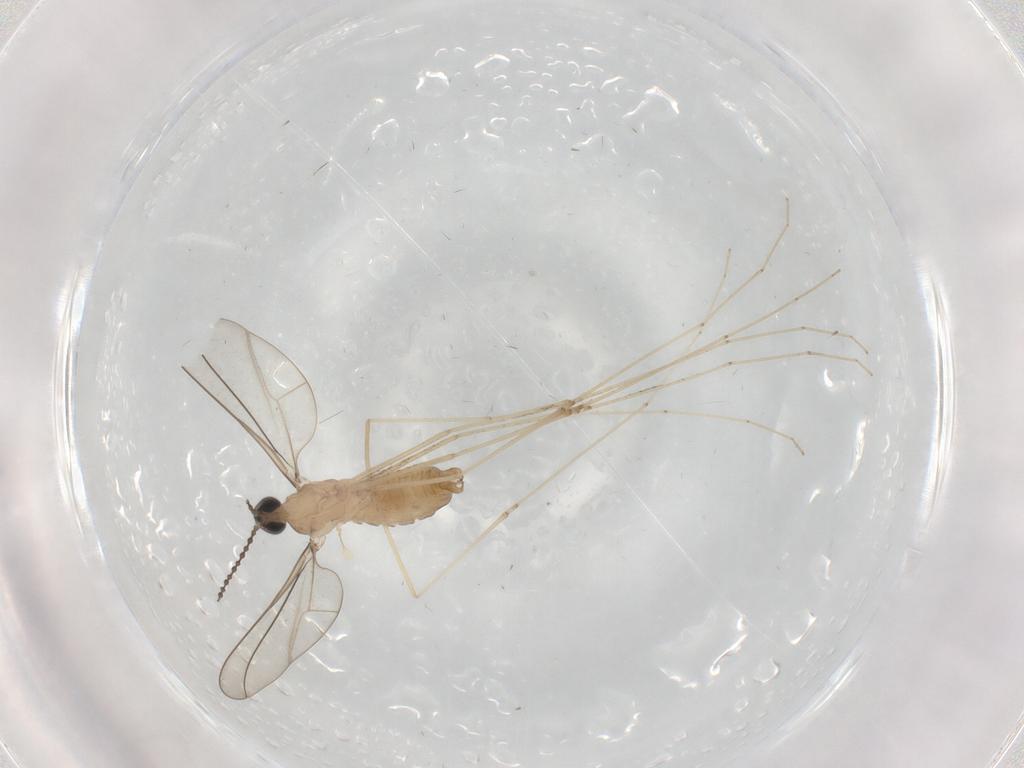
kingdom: Animalia
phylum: Arthropoda
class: Insecta
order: Diptera
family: Cecidomyiidae
